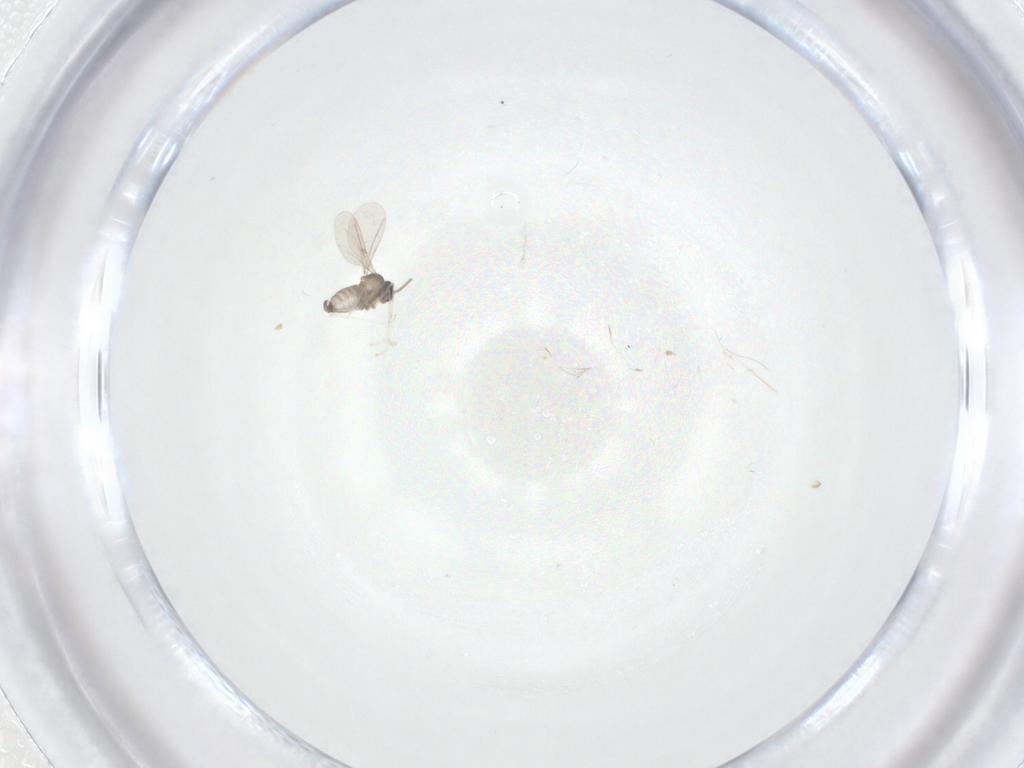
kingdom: Animalia
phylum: Arthropoda
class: Insecta
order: Diptera
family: Cecidomyiidae
